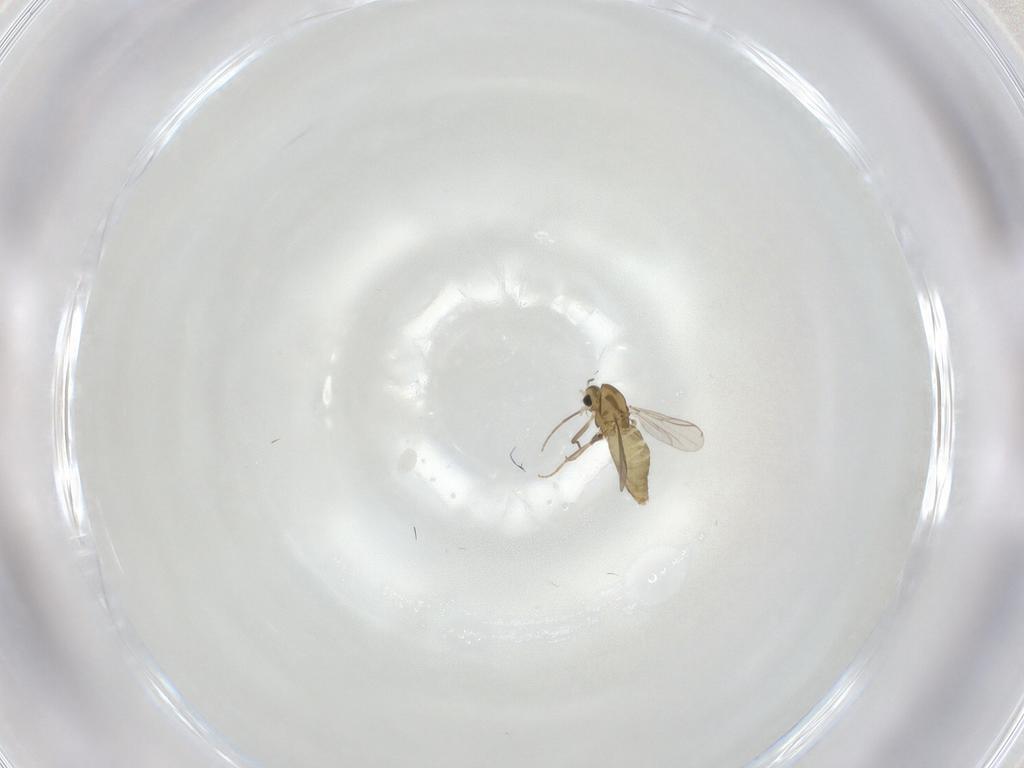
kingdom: Animalia
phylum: Arthropoda
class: Insecta
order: Diptera
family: Chironomidae
